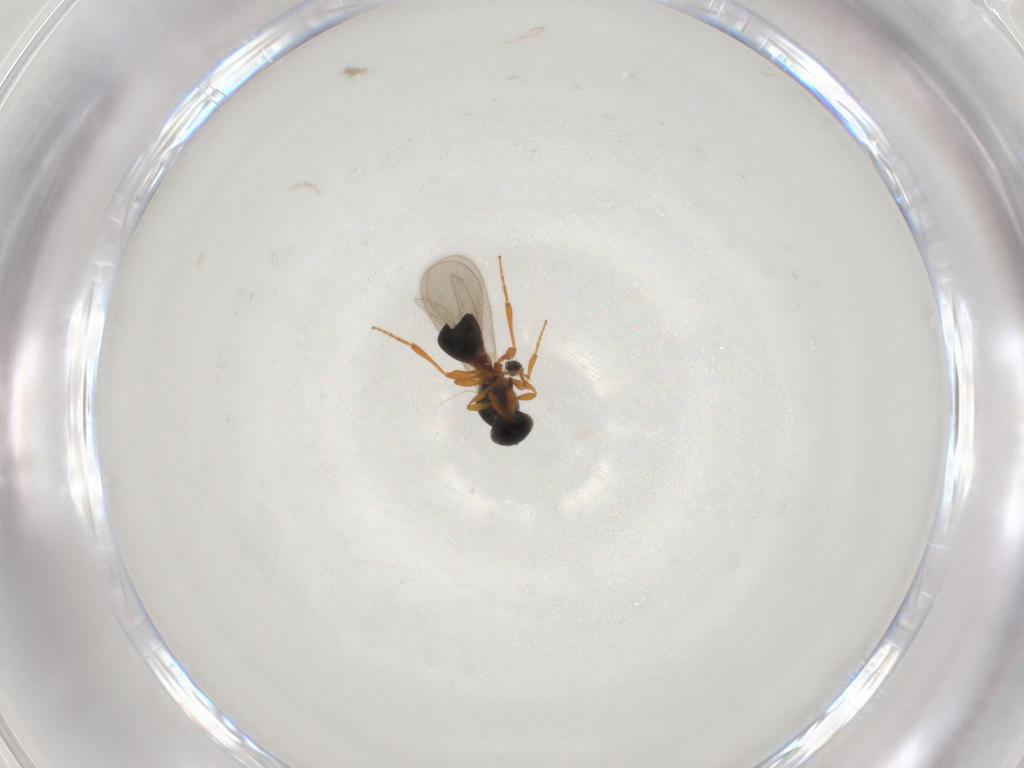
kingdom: Animalia
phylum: Arthropoda
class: Insecta
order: Hymenoptera
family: Platygastridae
